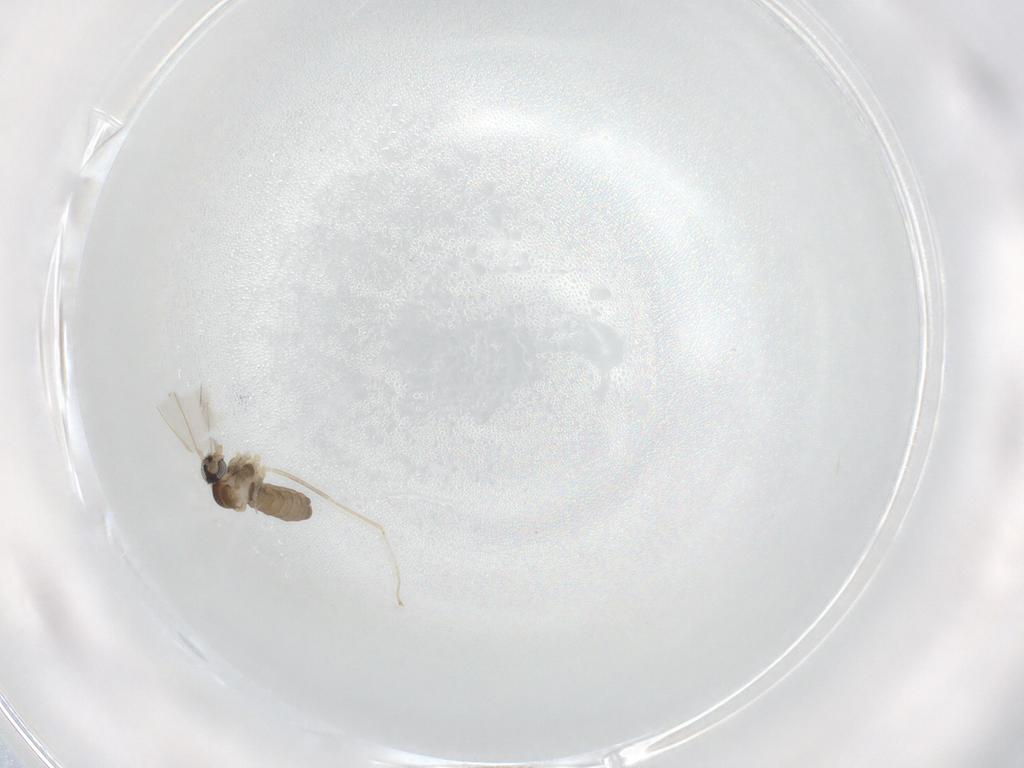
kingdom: Animalia
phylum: Arthropoda
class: Insecta
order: Diptera
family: Cecidomyiidae
